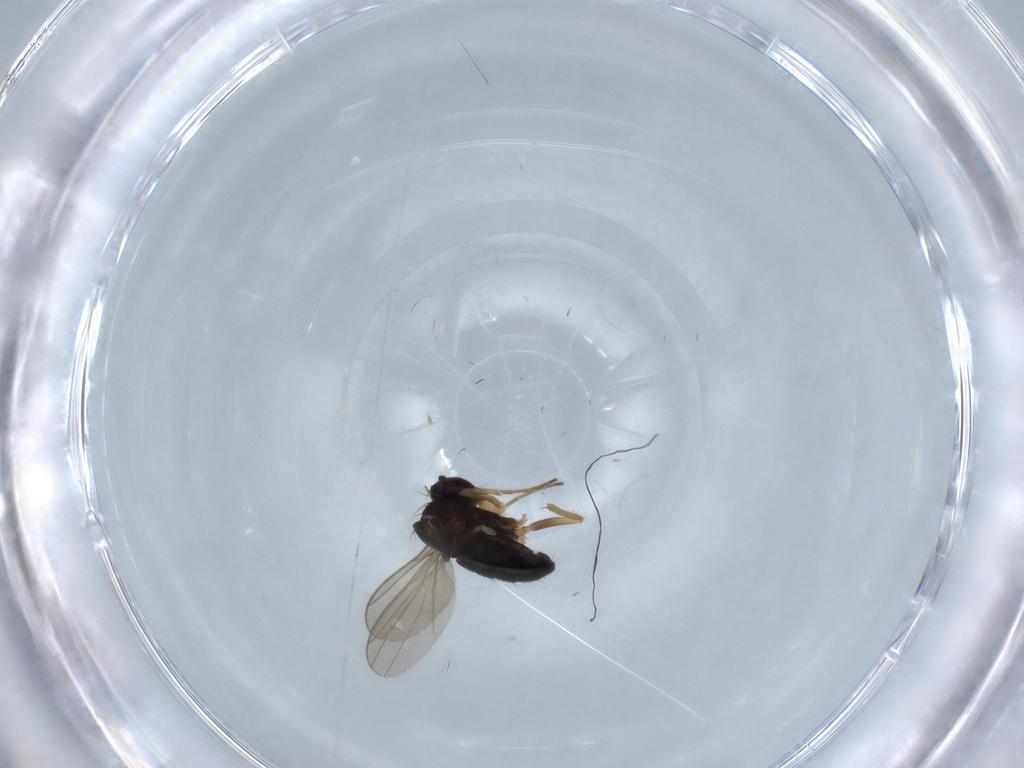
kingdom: Animalia
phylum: Arthropoda
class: Insecta
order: Diptera
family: Dolichopodidae
